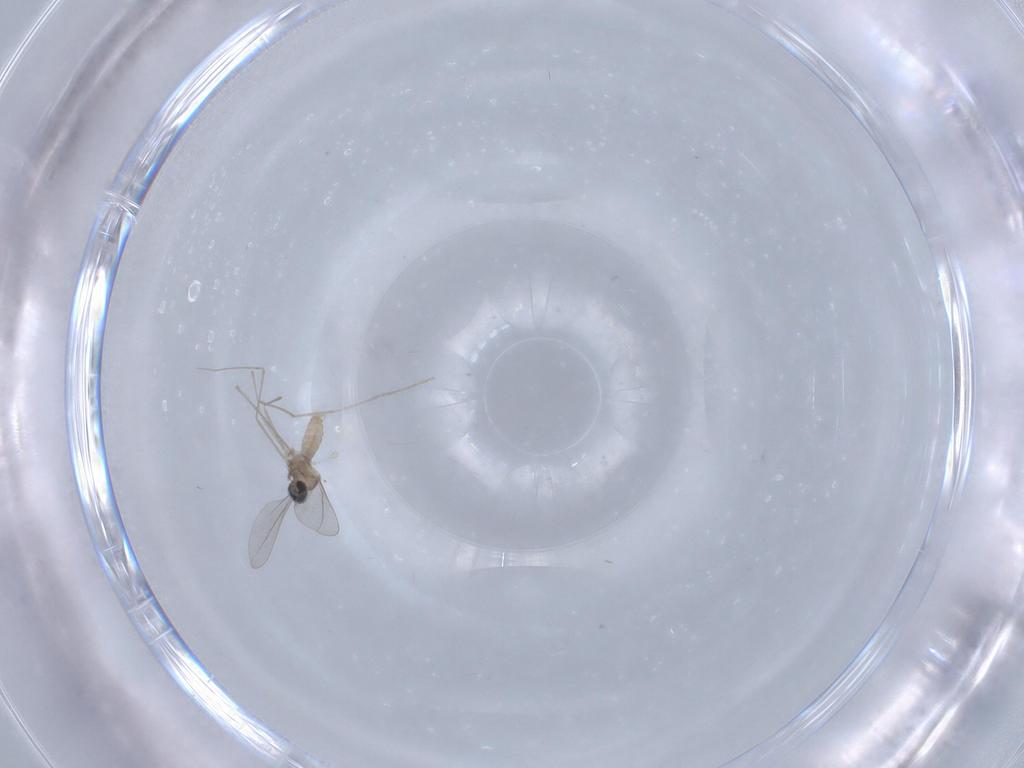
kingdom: Animalia
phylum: Arthropoda
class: Insecta
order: Diptera
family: Cecidomyiidae
